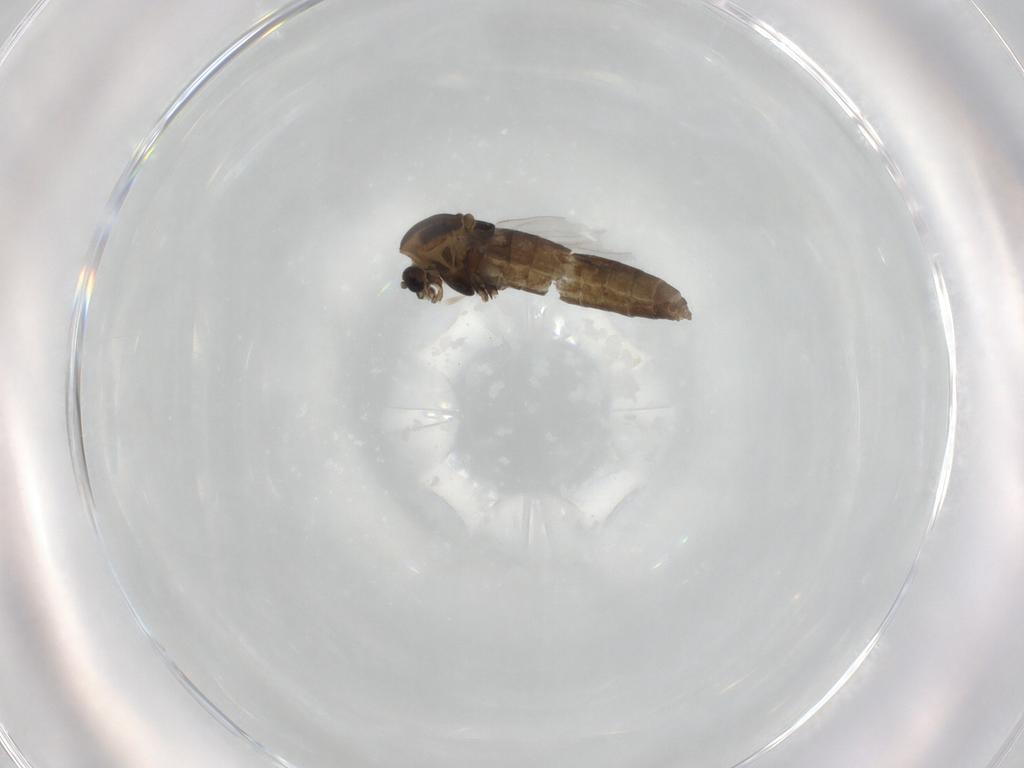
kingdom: Animalia
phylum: Arthropoda
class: Insecta
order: Diptera
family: Chironomidae
